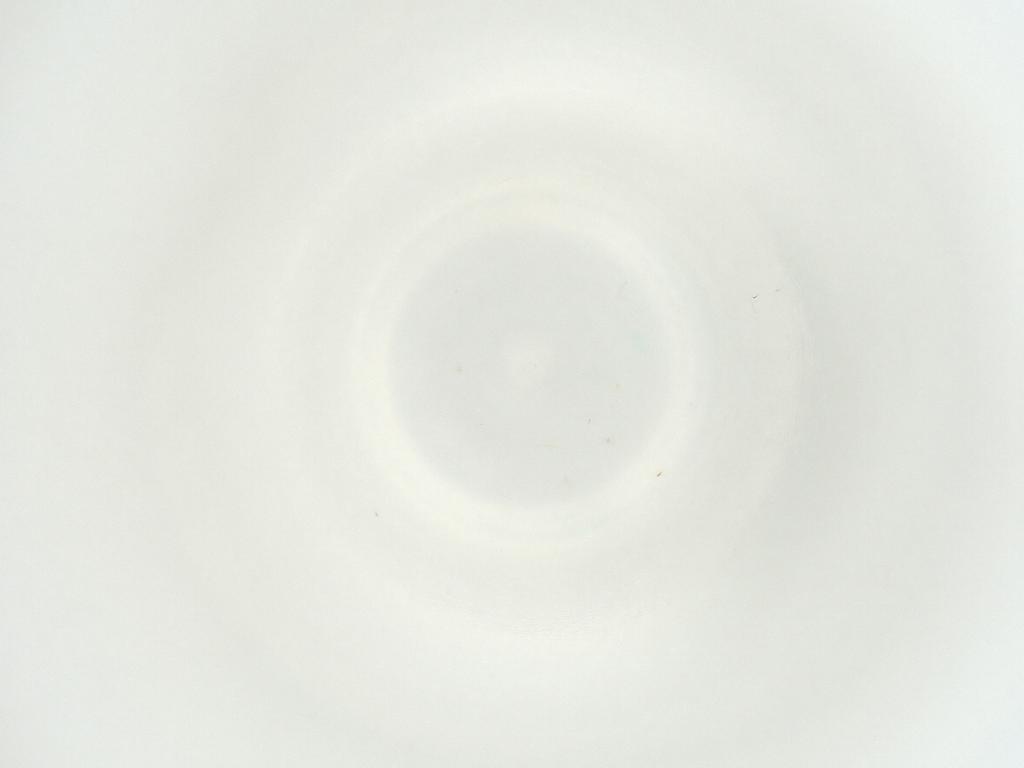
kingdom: Animalia
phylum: Arthropoda
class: Insecta
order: Hymenoptera
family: Mymaridae
